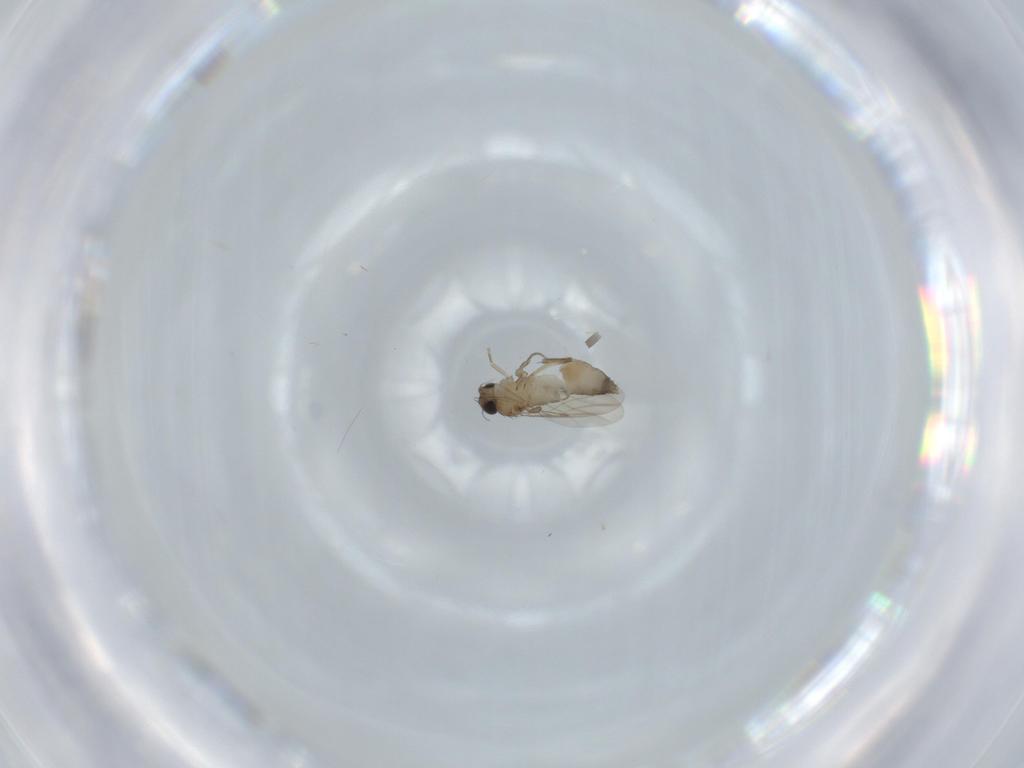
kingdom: Animalia
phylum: Arthropoda
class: Insecta
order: Diptera
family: Phoridae
